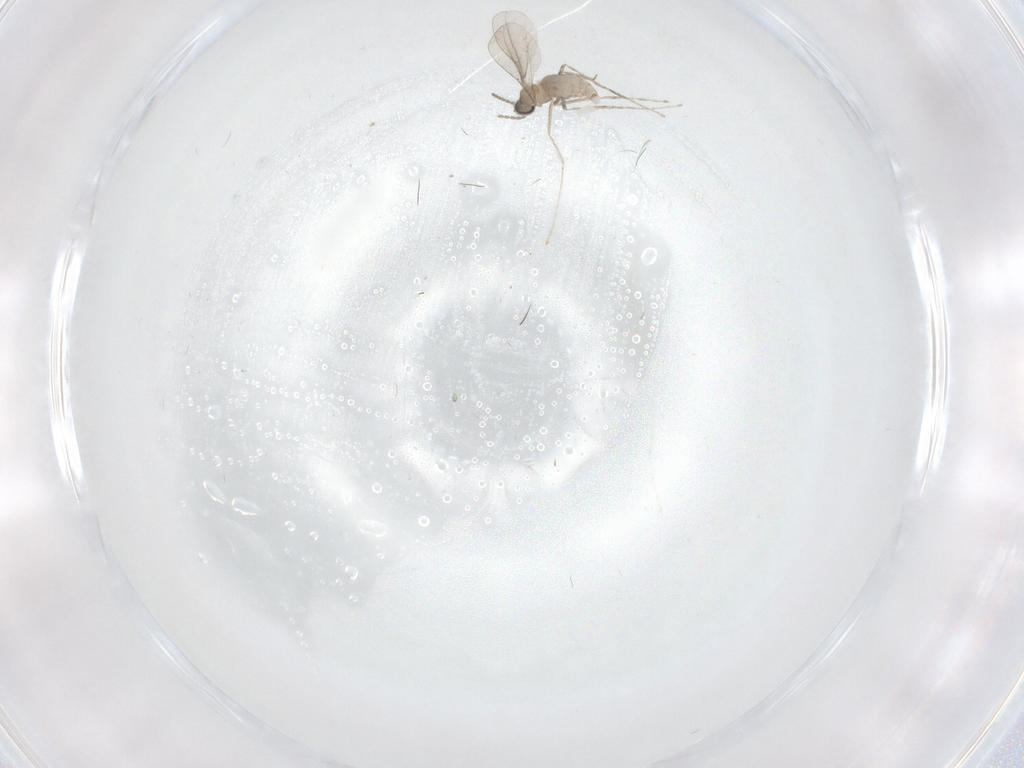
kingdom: Animalia
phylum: Arthropoda
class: Insecta
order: Diptera
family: Cecidomyiidae
